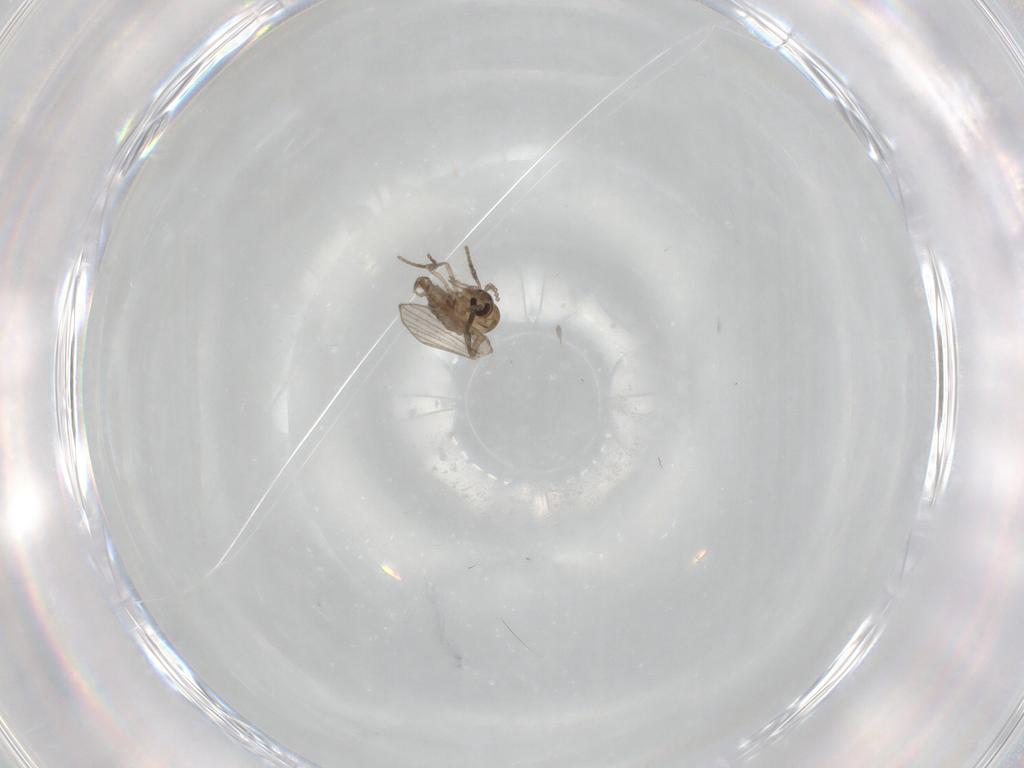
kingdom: Animalia
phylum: Arthropoda
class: Insecta
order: Diptera
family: Psychodidae
